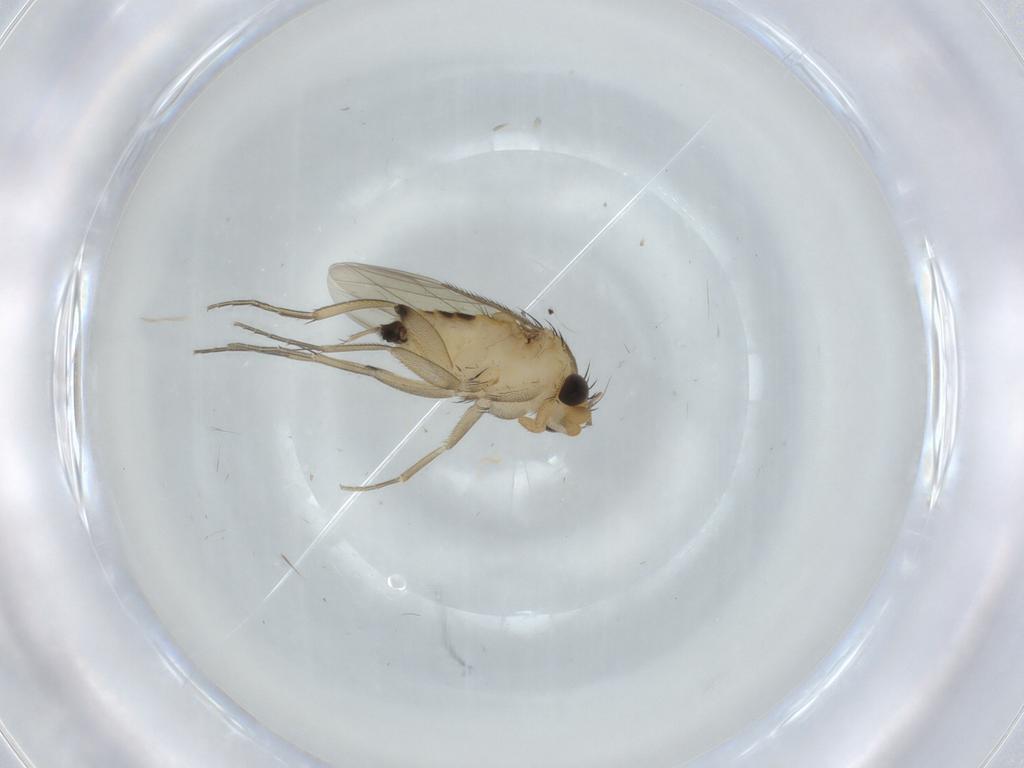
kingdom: Animalia
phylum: Arthropoda
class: Insecta
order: Diptera
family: Phoridae
